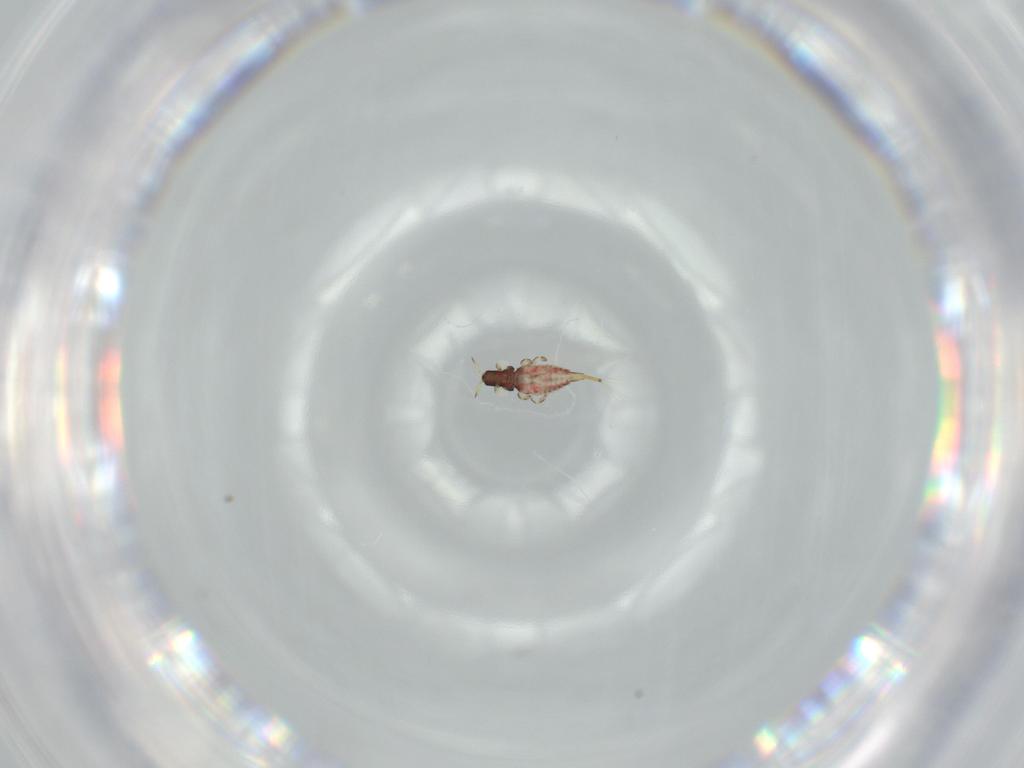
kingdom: Animalia
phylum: Arthropoda
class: Insecta
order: Thysanoptera
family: Phlaeothripidae
